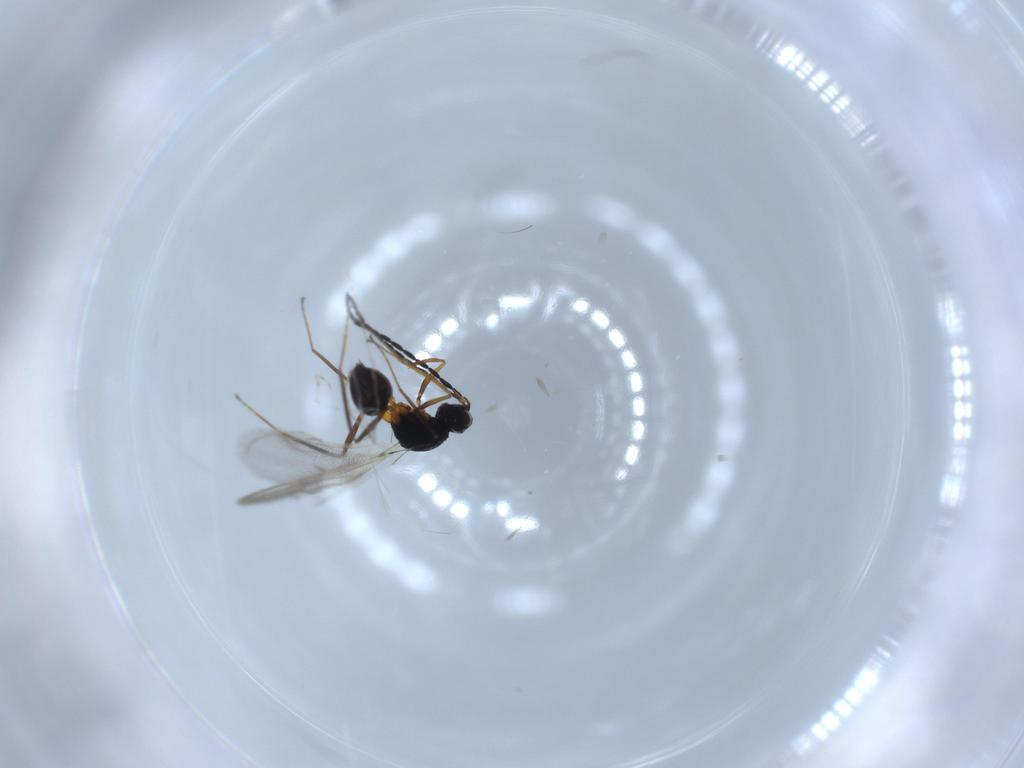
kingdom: Animalia
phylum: Arthropoda
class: Insecta
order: Hymenoptera
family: Mymaridae
